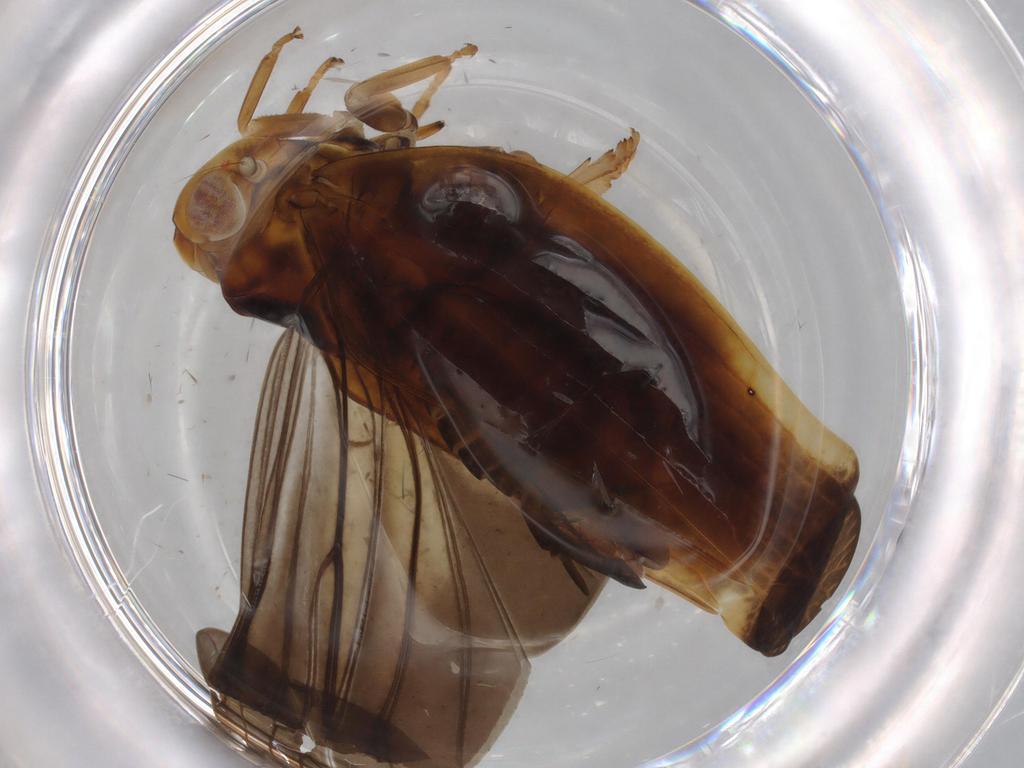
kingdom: Animalia
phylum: Arthropoda
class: Insecta
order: Hemiptera
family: Nogodinidae
